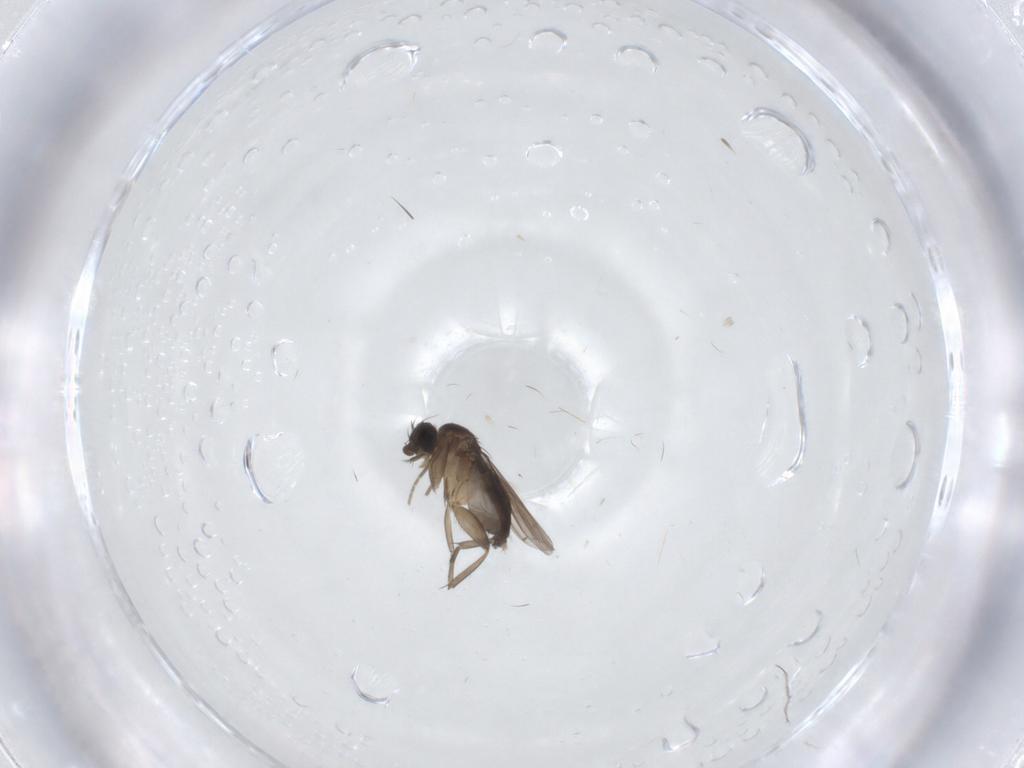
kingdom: Animalia
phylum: Arthropoda
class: Insecta
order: Diptera
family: Phoridae
